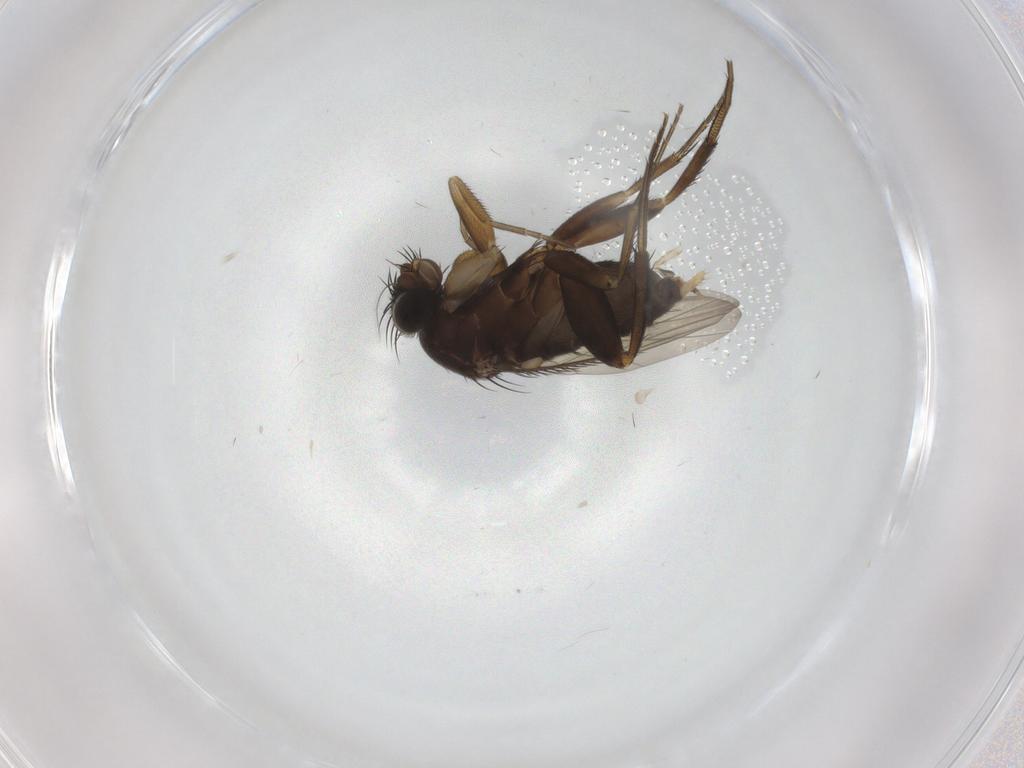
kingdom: Animalia
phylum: Arthropoda
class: Insecta
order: Diptera
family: Phoridae
